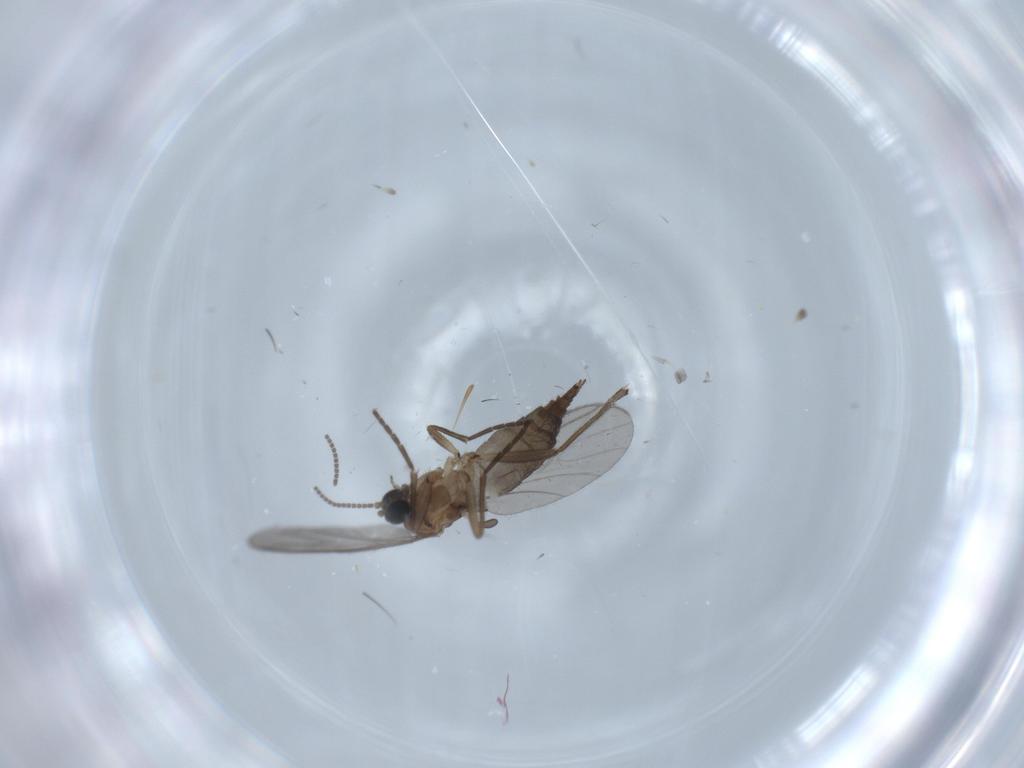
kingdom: Animalia
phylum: Arthropoda
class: Insecta
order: Diptera
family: Sciaridae
